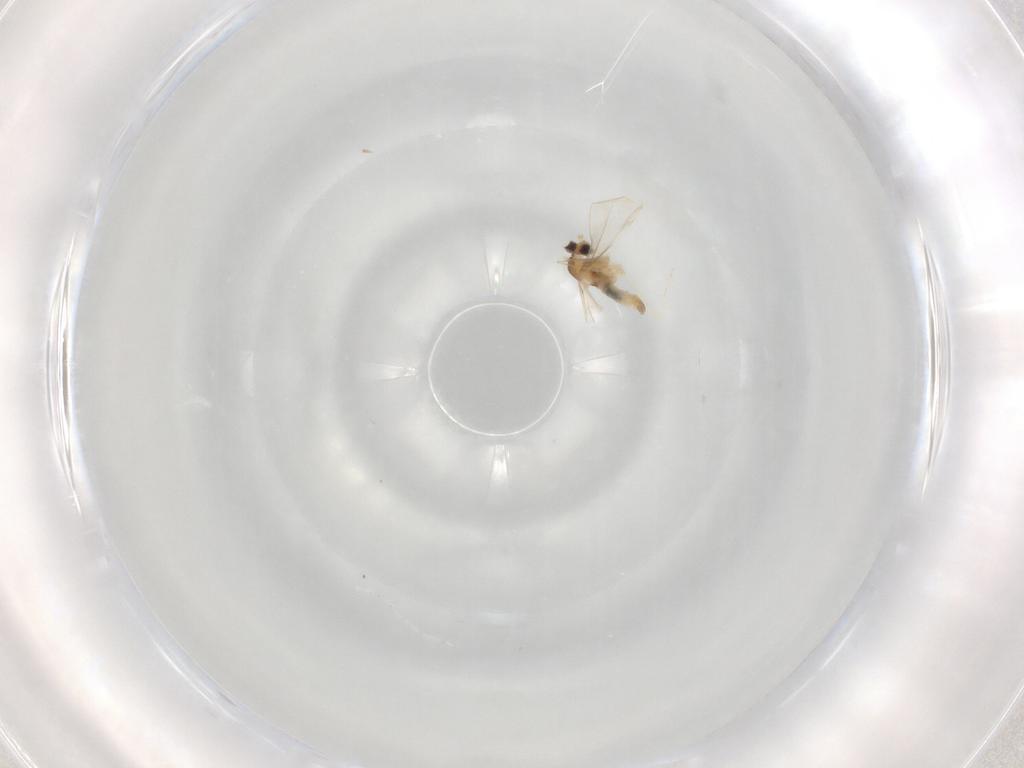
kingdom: Animalia
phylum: Arthropoda
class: Insecta
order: Diptera
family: Cecidomyiidae
